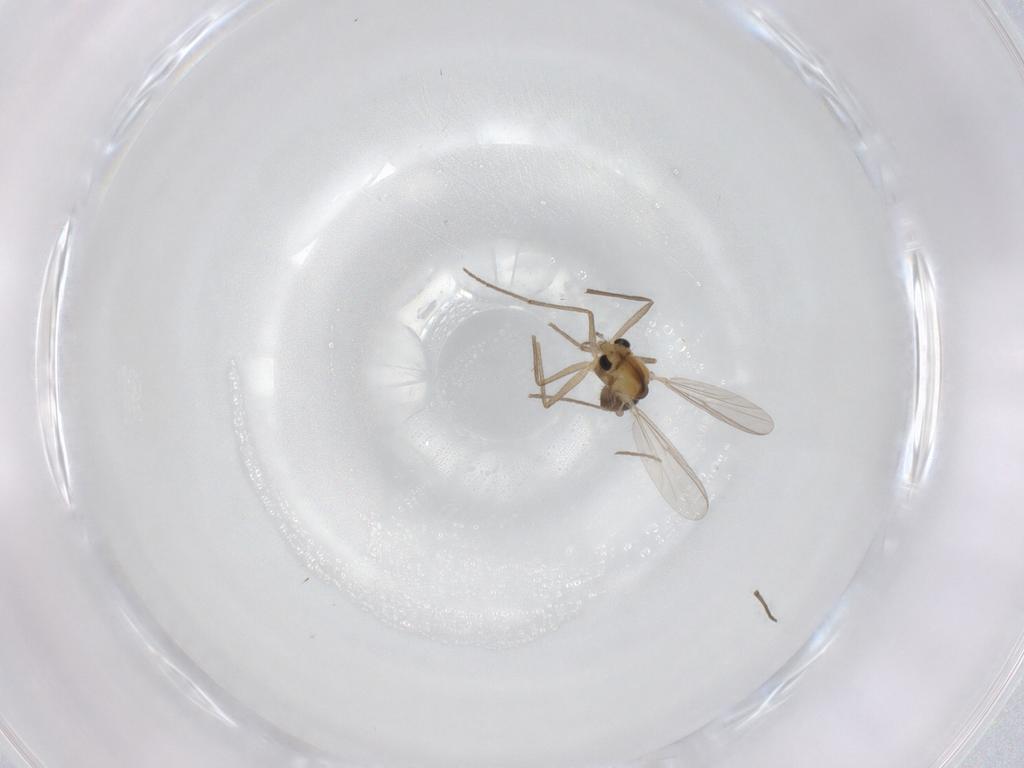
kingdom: Animalia
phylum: Arthropoda
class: Insecta
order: Diptera
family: Chironomidae
